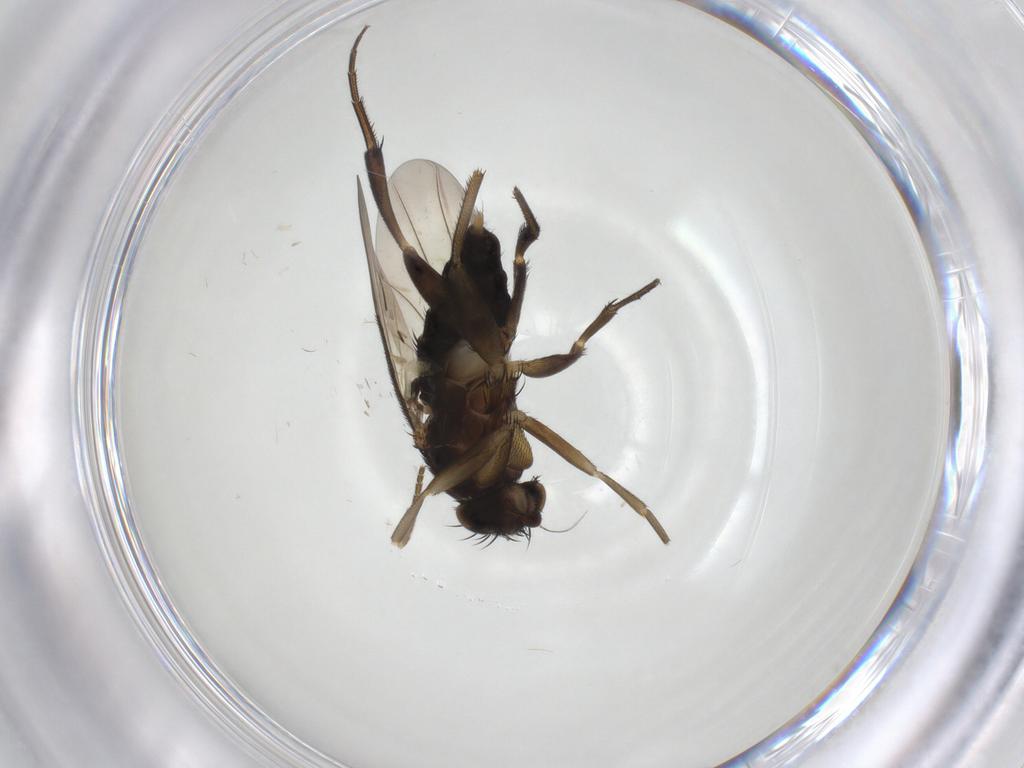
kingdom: Animalia
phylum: Arthropoda
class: Insecta
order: Diptera
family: Phoridae
